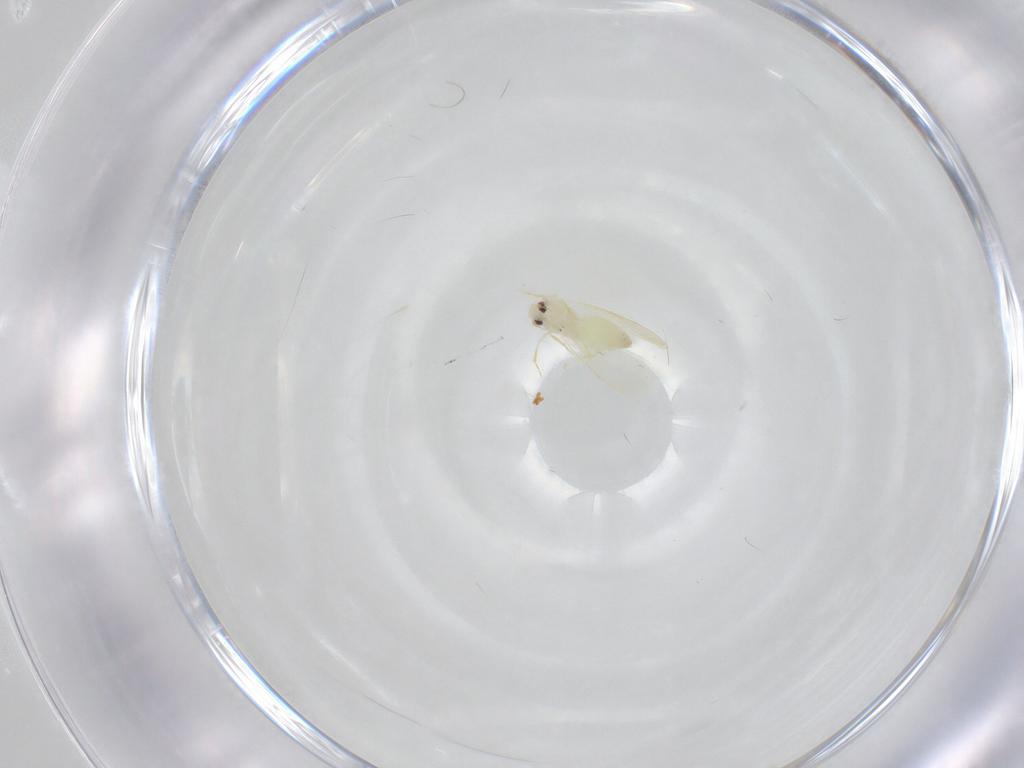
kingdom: Animalia
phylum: Arthropoda
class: Insecta
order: Hemiptera
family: Aleyrodidae
